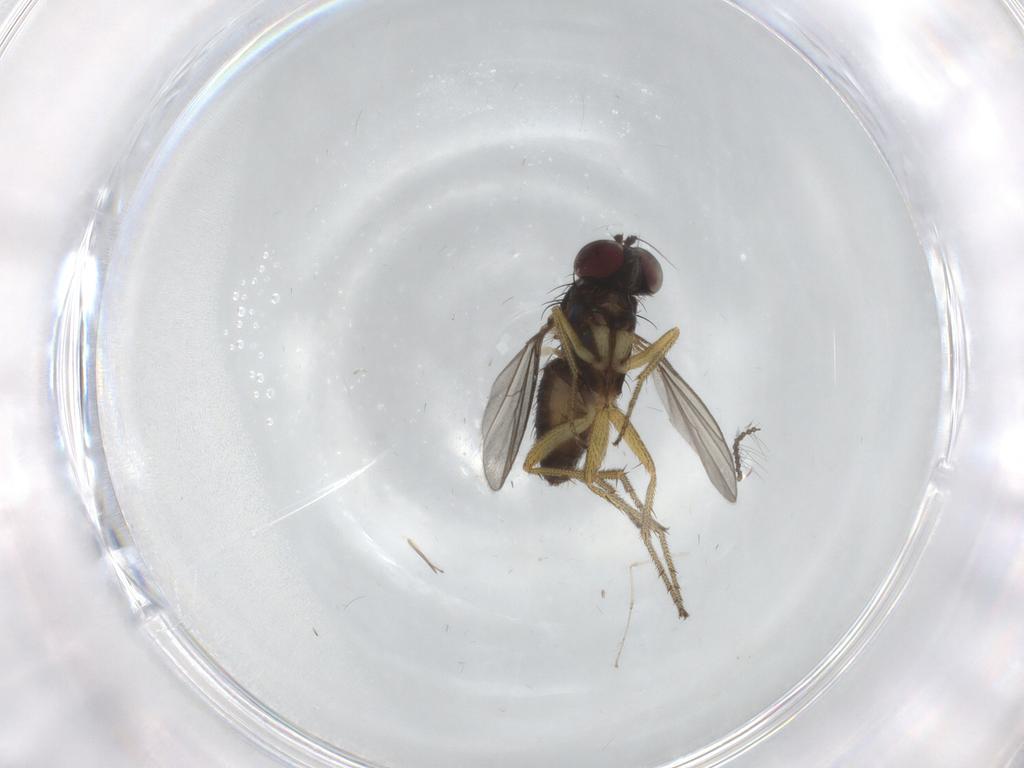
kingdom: Animalia
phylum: Arthropoda
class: Insecta
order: Diptera
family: Dolichopodidae
